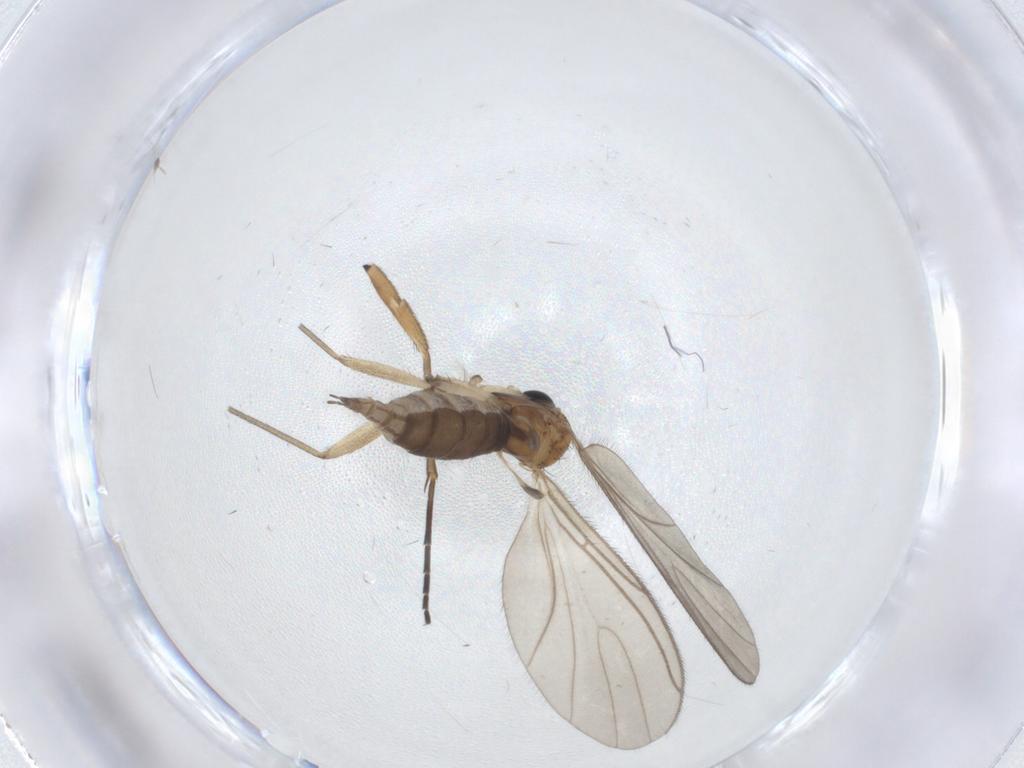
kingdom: Animalia
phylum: Arthropoda
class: Insecta
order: Diptera
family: Sciaridae
